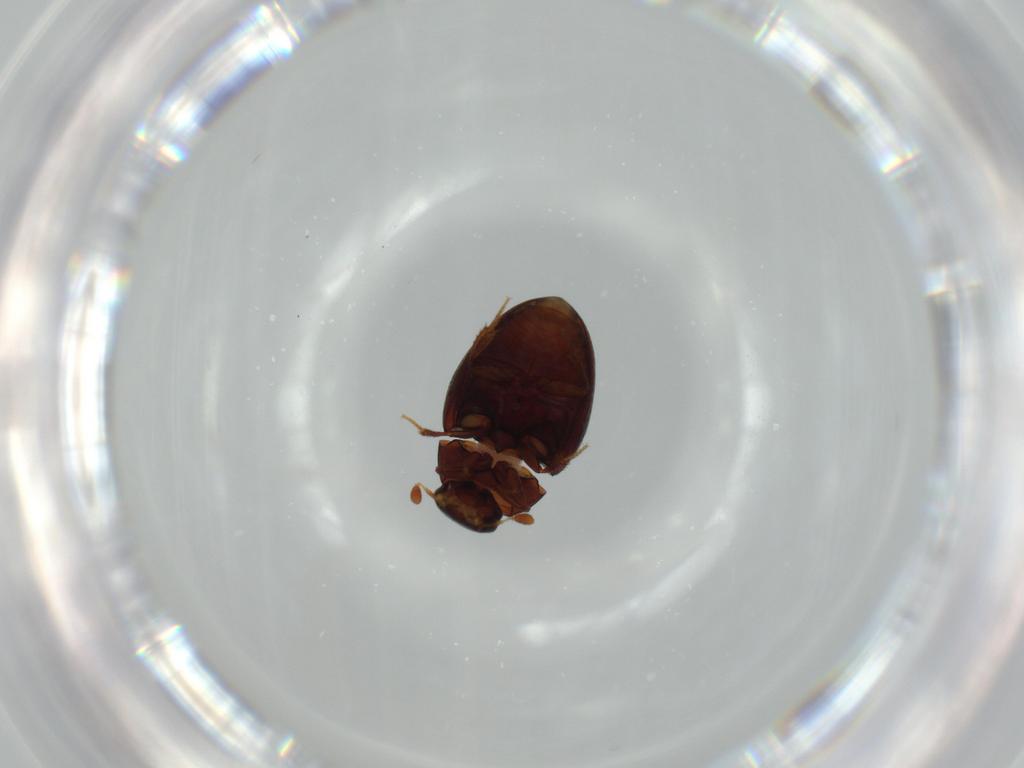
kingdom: Animalia
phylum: Arthropoda
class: Insecta
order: Coleoptera
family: Hydrophilidae
